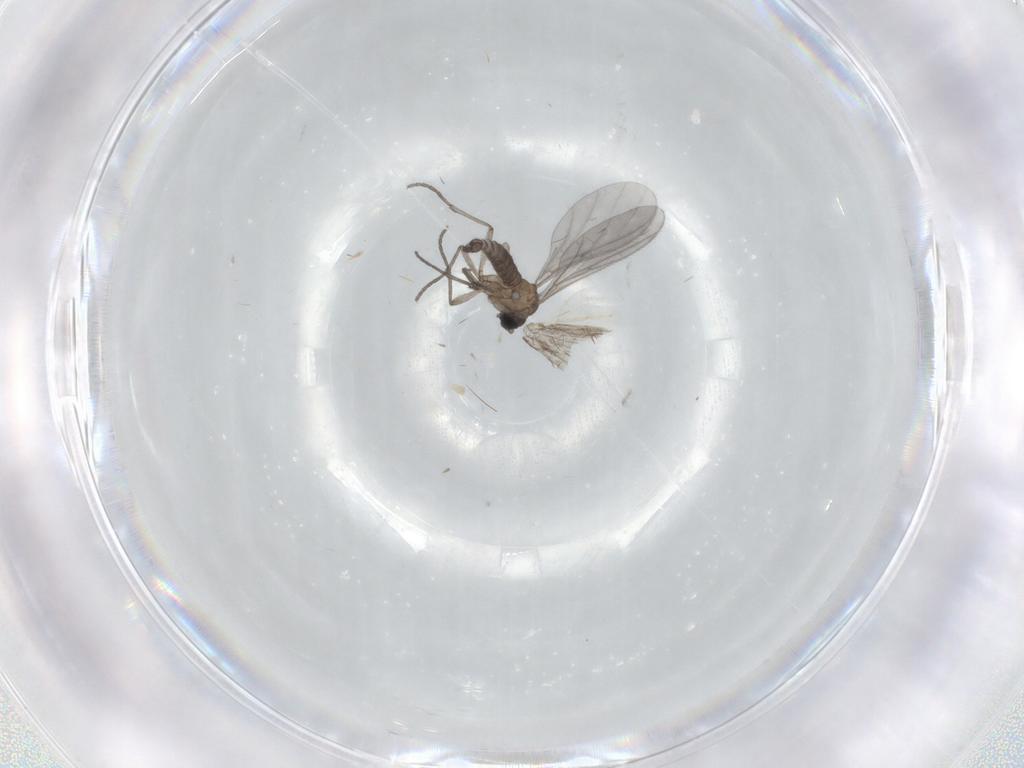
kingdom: Animalia
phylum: Arthropoda
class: Insecta
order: Diptera
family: Sciaridae
